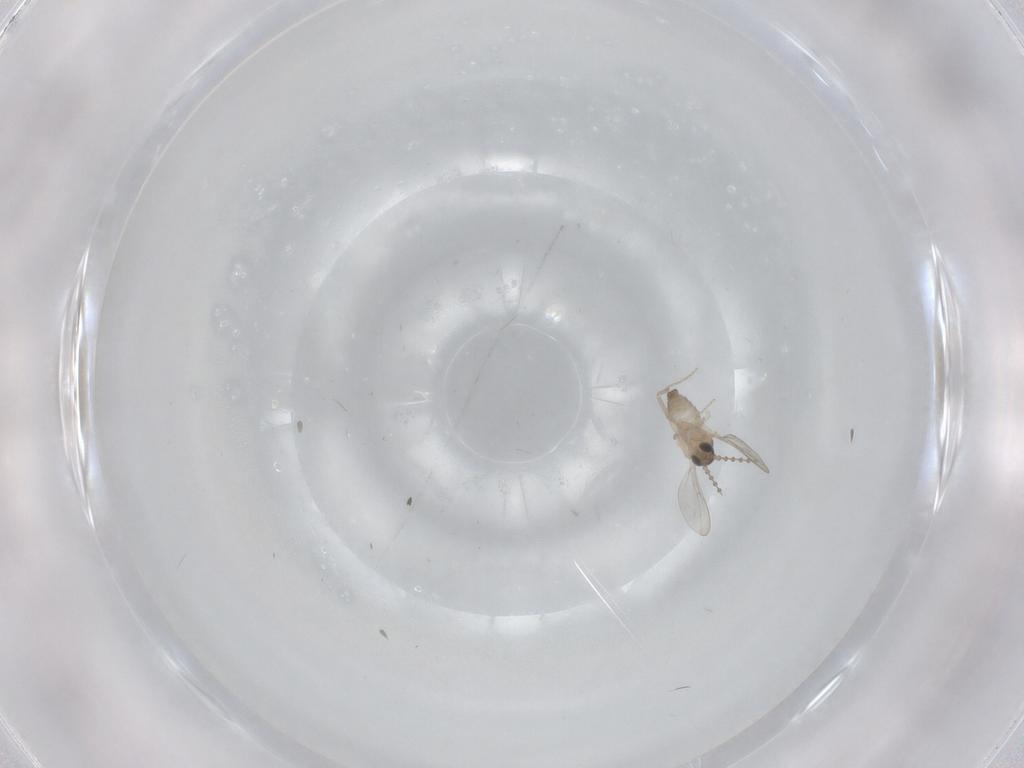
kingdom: Animalia
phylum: Arthropoda
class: Insecta
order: Diptera
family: Cecidomyiidae
